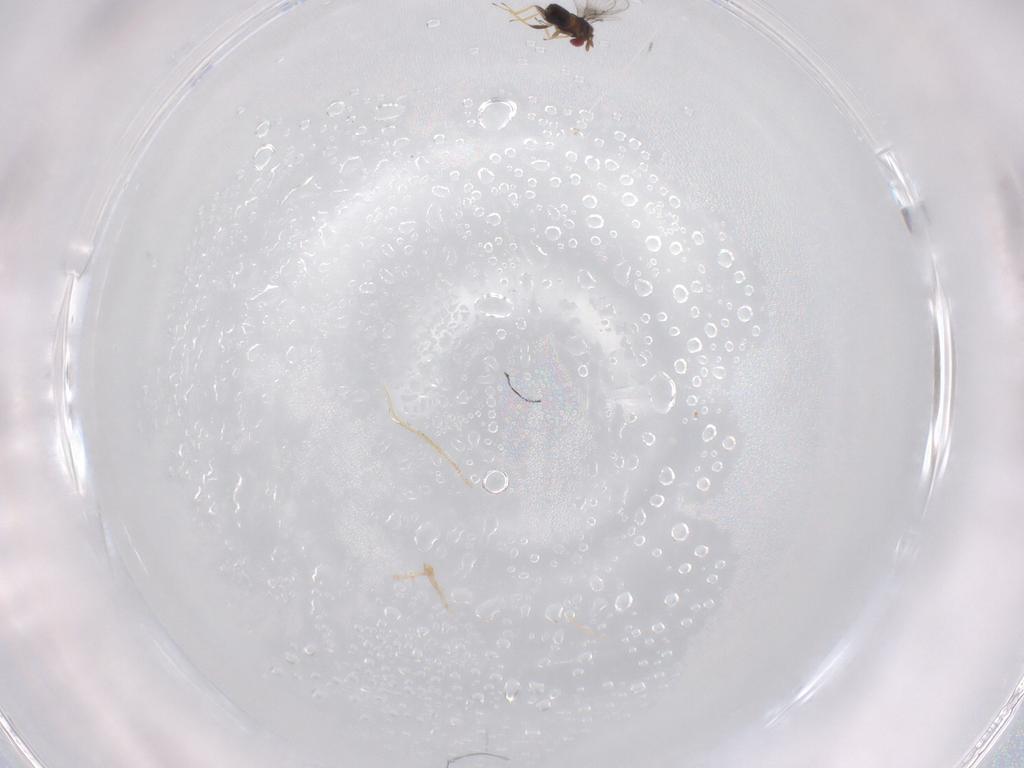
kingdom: Animalia
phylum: Arthropoda
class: Insecta
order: Hymenoptera
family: Trichogrammatidae
